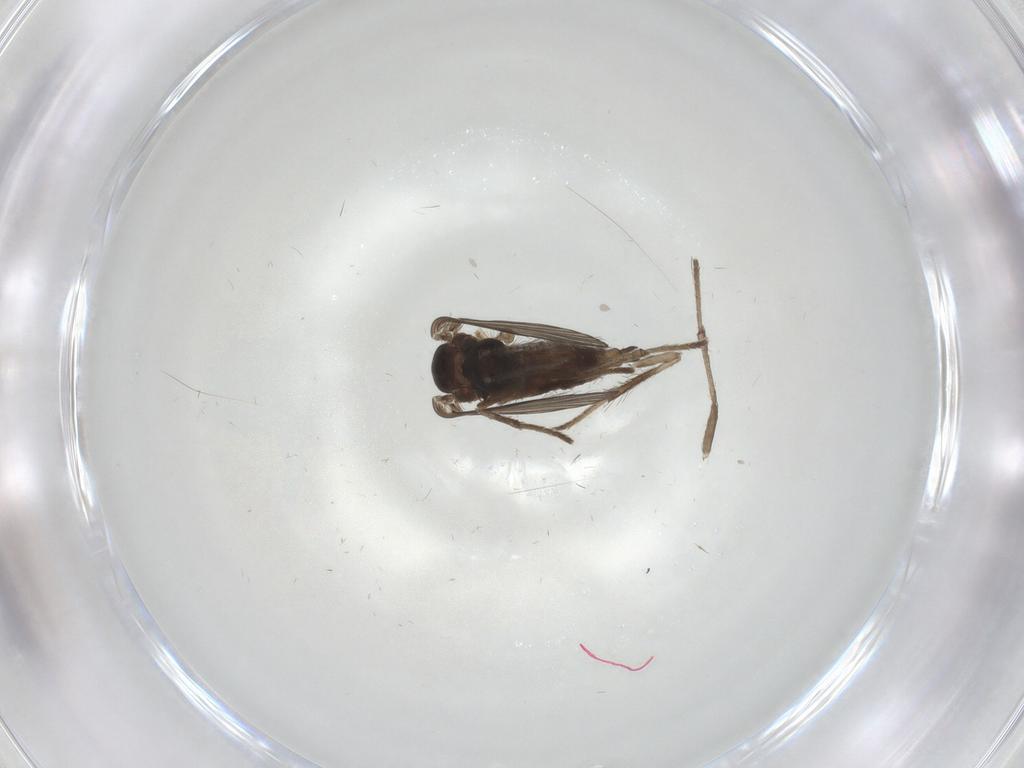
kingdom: Animalia
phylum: Arthropoda
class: Insecta
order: Diptera
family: Psychodidae
